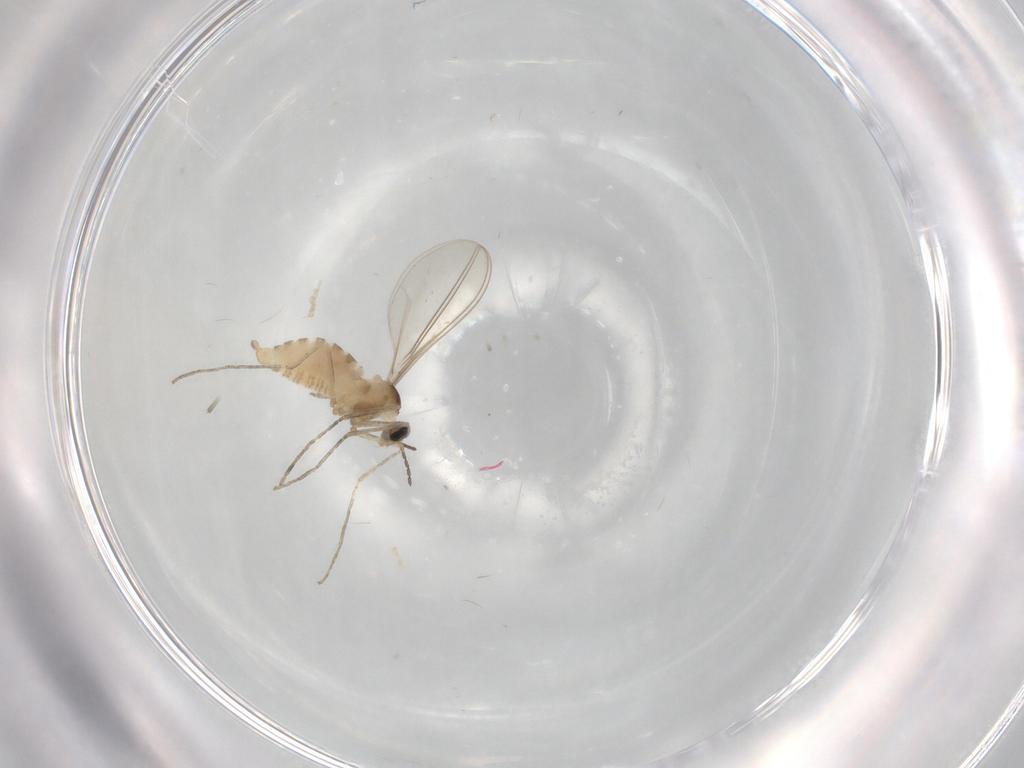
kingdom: Animalia
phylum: Arthropoda
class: Insecta
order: Diptera
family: Cecidomyiidae
